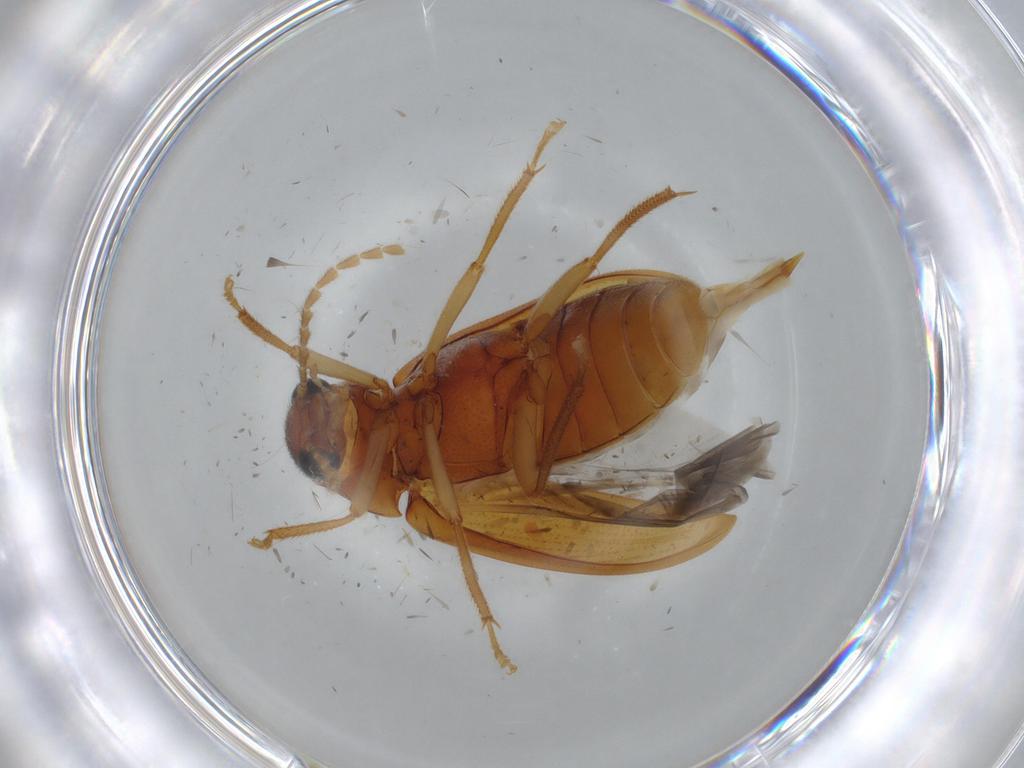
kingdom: Animalia
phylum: Arthropoda
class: Insecta
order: Coleoptera
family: Ptilodactylidae
